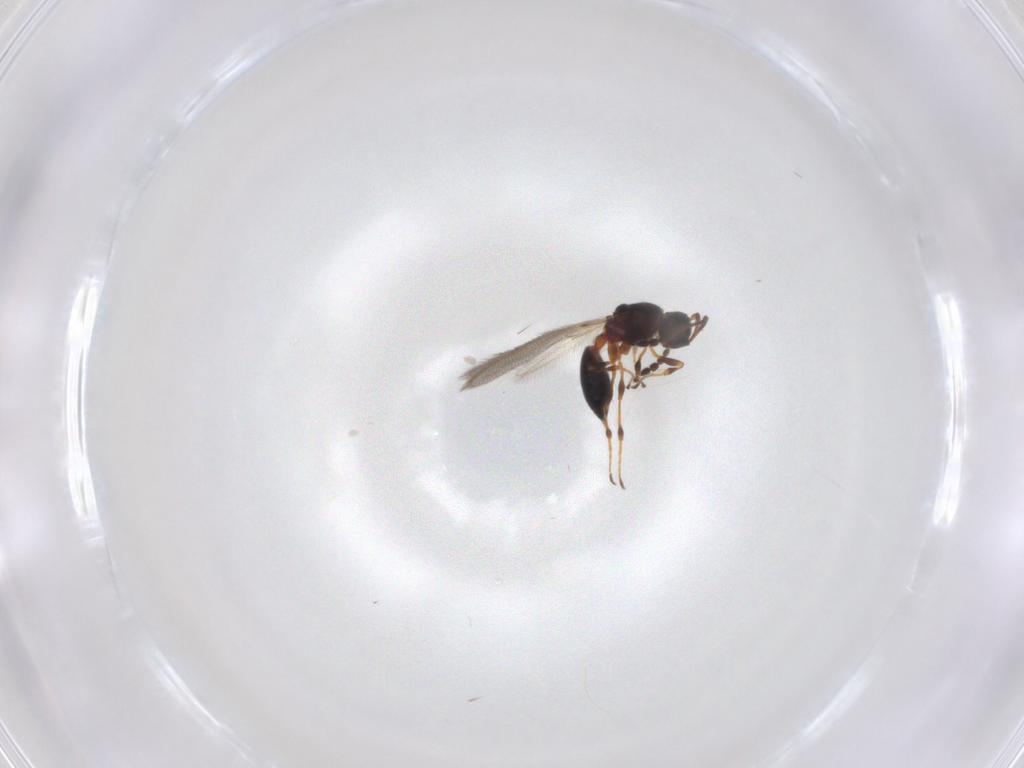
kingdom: Animalia
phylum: Arthropoda
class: Insecta
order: Hymenoptera
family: Diapriidae
